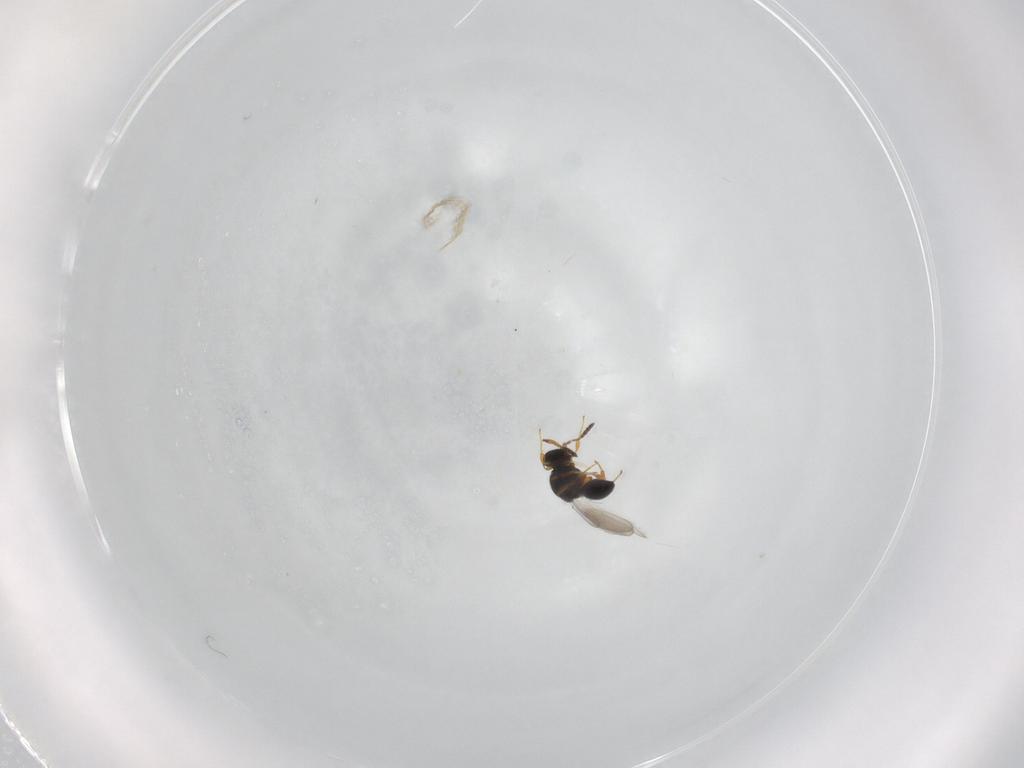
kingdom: Animalia
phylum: Arthropoda
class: Insecta
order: Hymenoptera
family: Platygastridae
